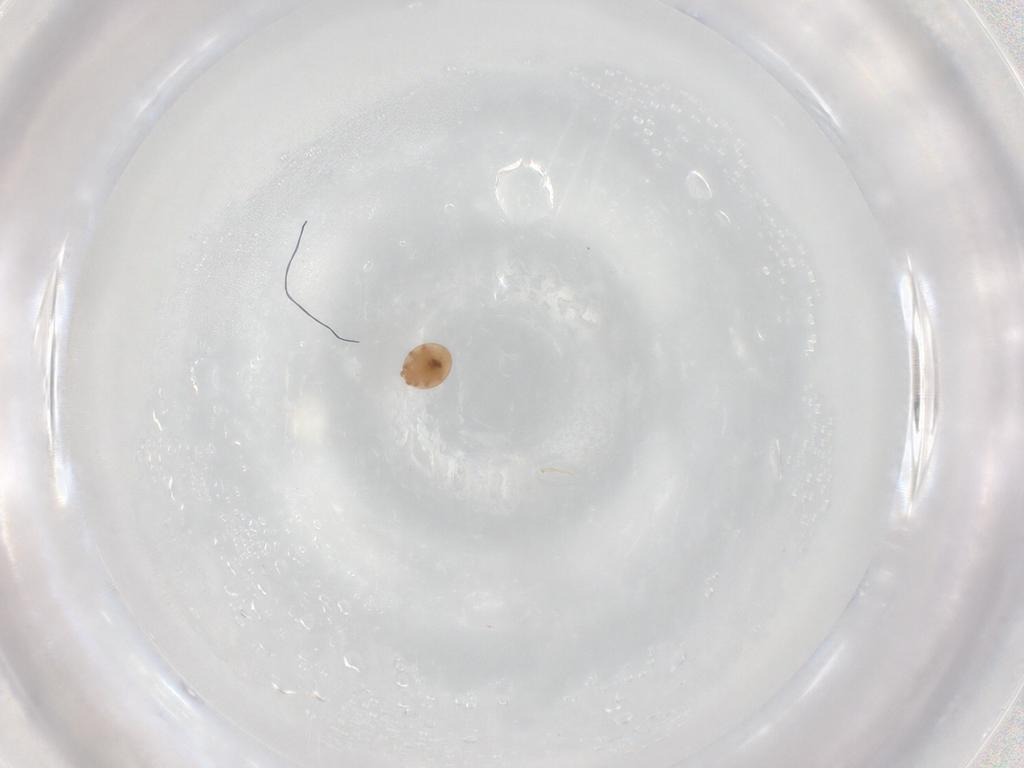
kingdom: Animalia
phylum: Arthropoda
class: Arachnida
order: Mesostigmata
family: Trematuridae
